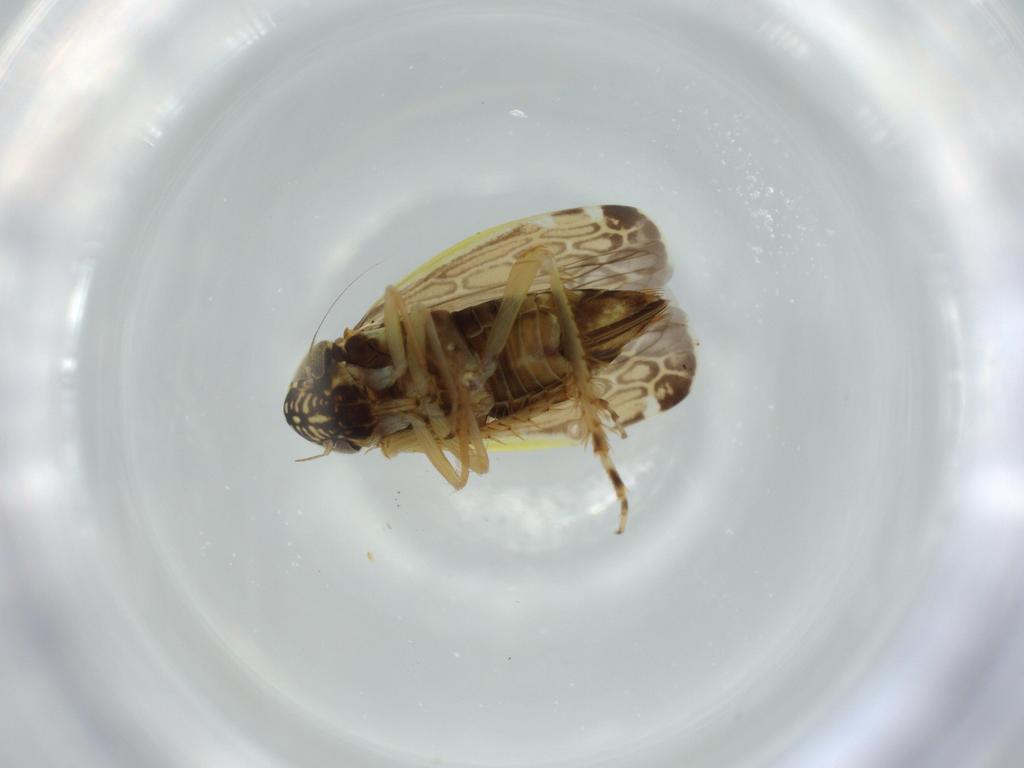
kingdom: Animalia
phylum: Arthropoda
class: Insecta
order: Hemiptera
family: Cicadellidae
